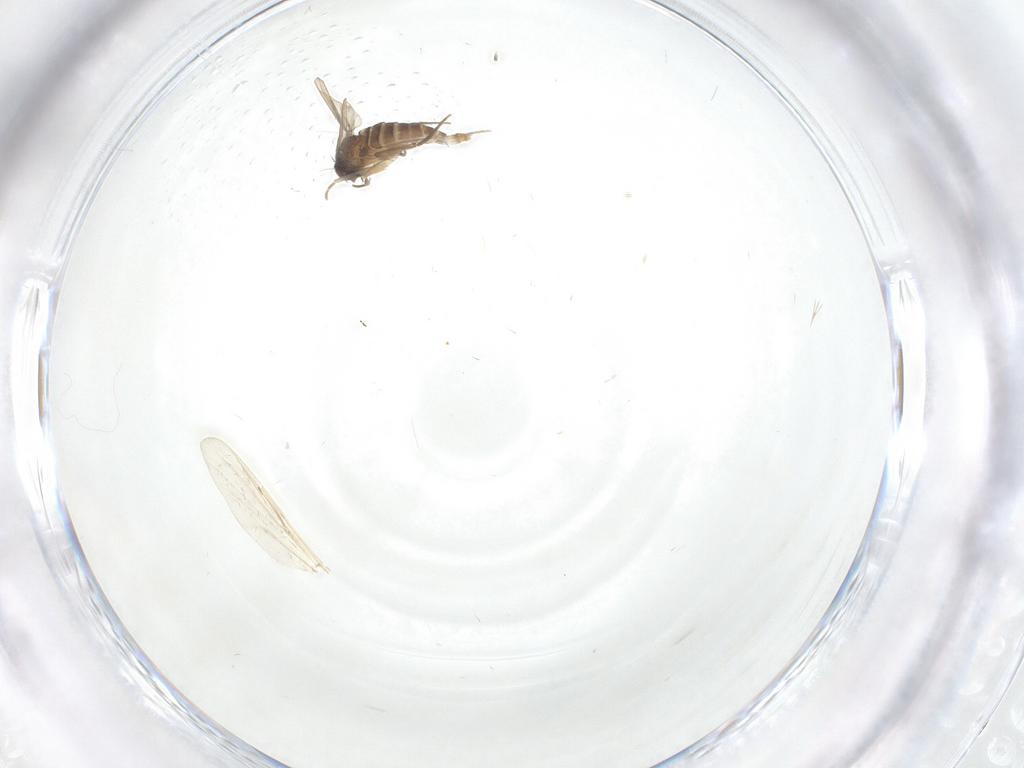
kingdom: Animalia
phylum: Arthropoda
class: Insecta
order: Diptera
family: Phoridae
